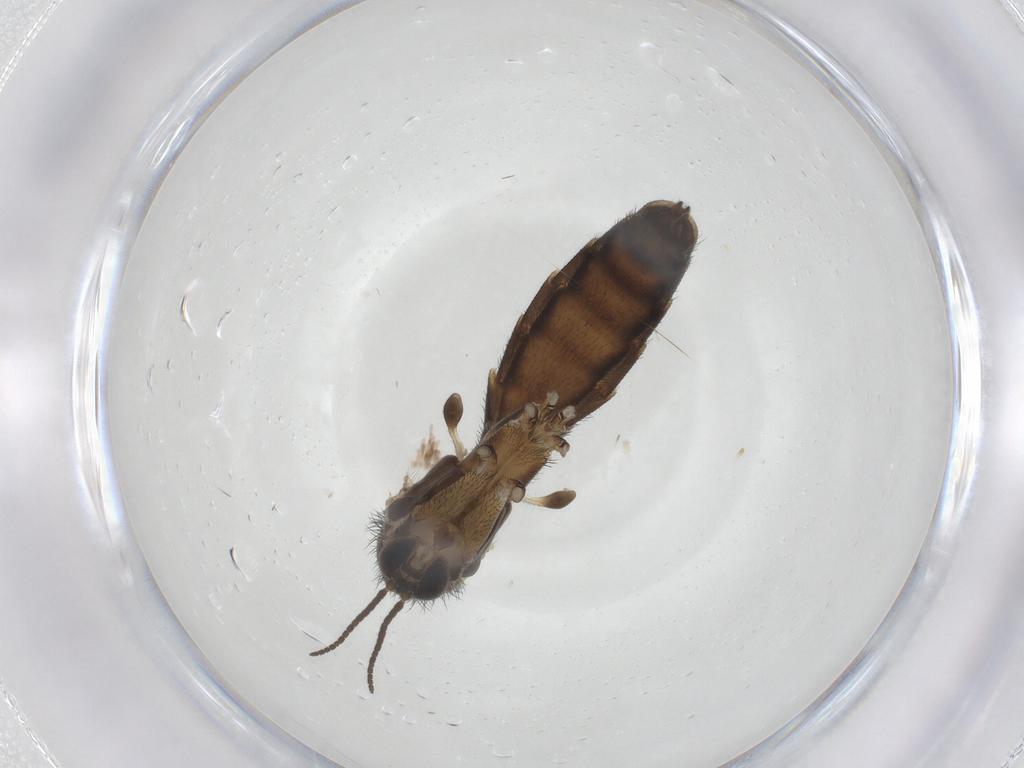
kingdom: Animalia
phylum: Arthropoda
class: Insecta
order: Diptera
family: Keroplatidae
